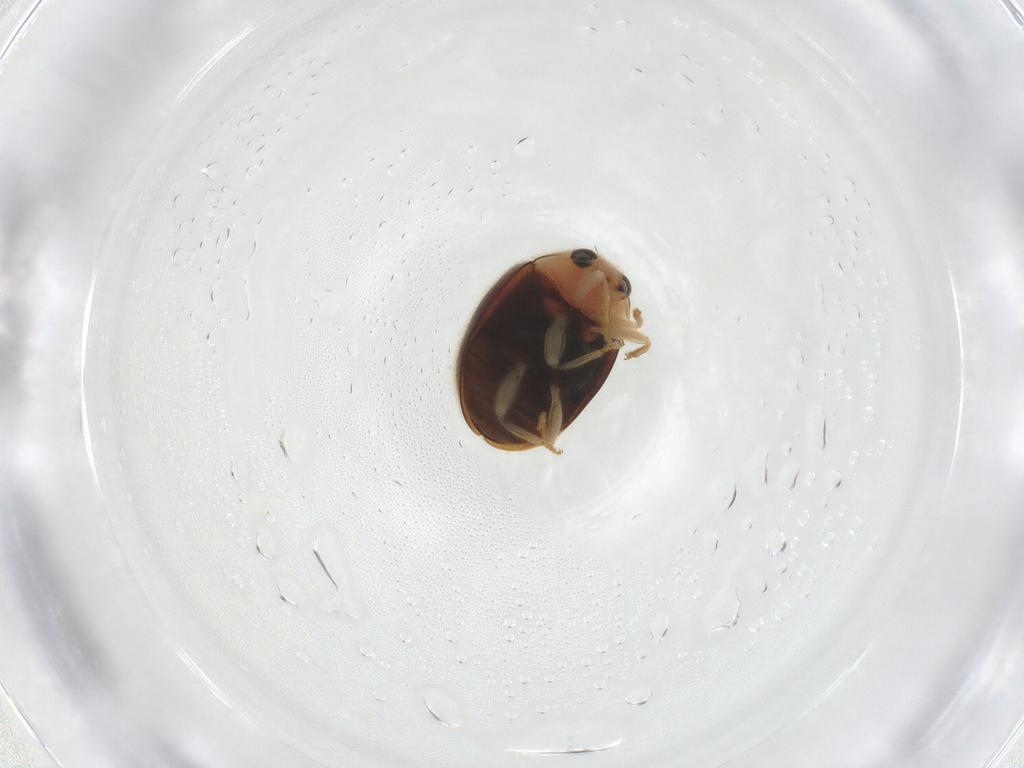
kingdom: Animalia
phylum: Arthropoda
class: Insecta
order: Coleoptera
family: Coccinellidae
